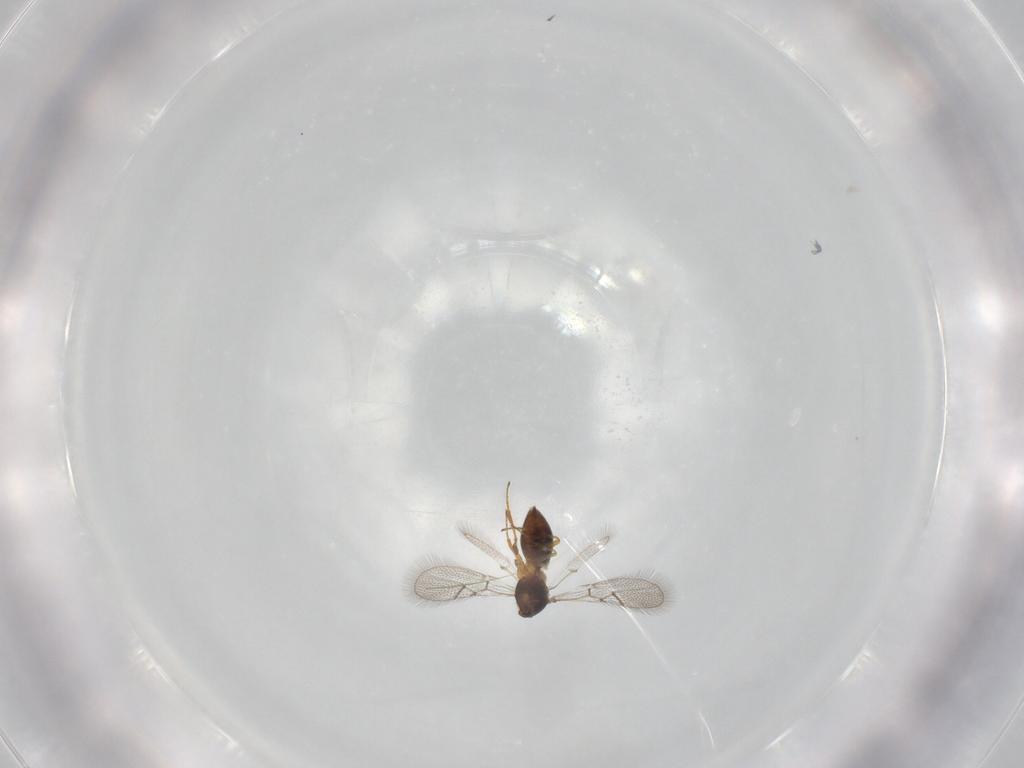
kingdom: Animalia
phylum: Arthropoda
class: Insecta
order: Hymenoptera
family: Figitidae
